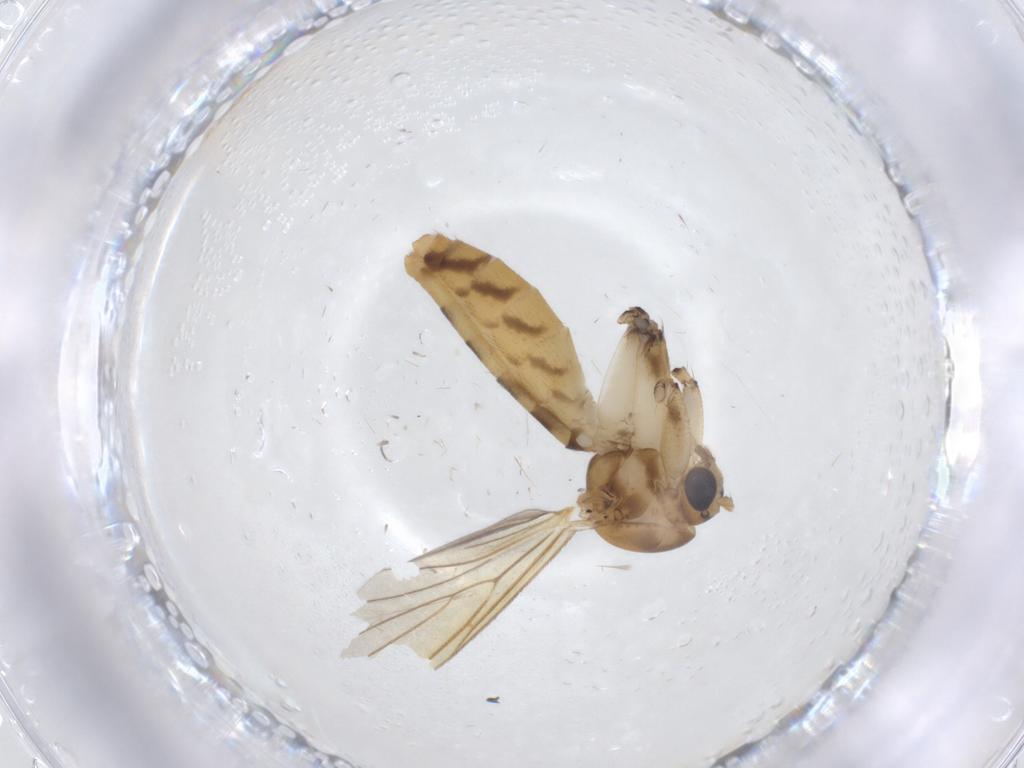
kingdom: Animalia
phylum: Arthropoda
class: Insecta
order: Diptera
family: Mycetophilidae
